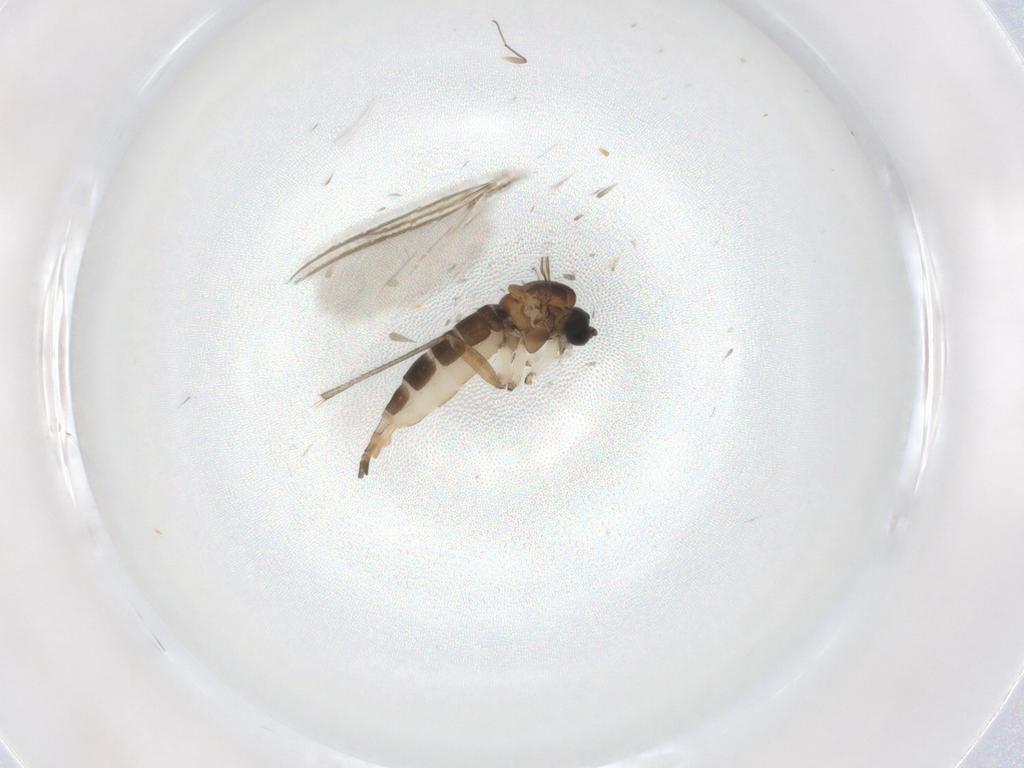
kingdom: Animalia
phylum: Arthropoda
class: Insecta
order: Diptera
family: Sciaridae
